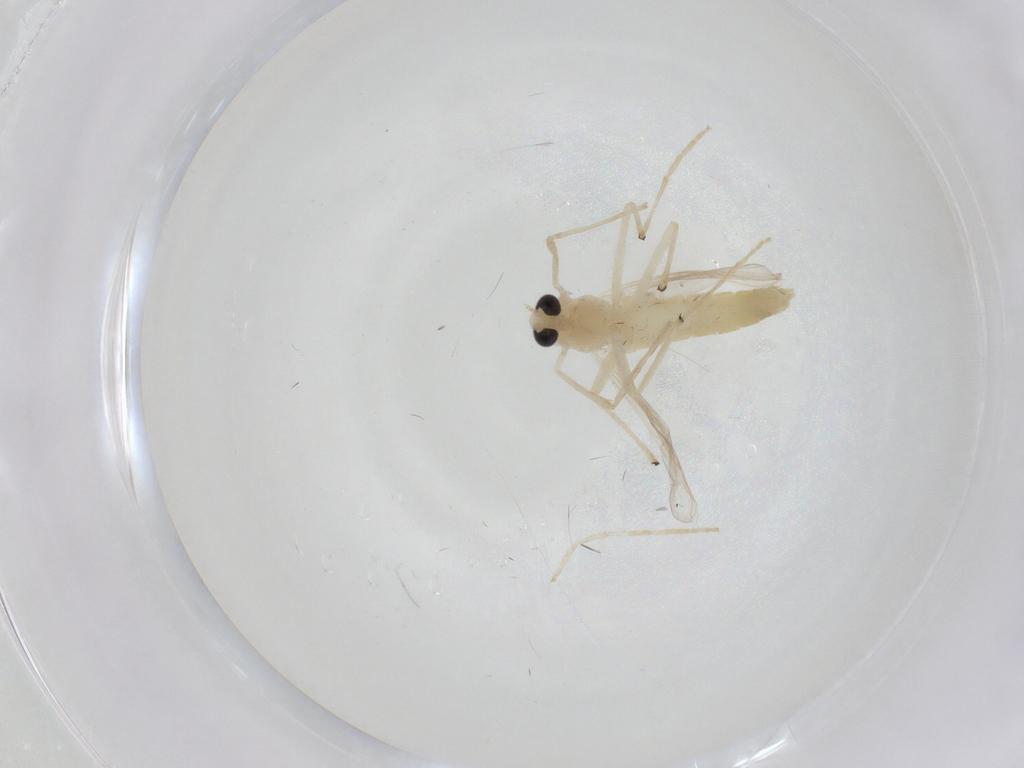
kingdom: Animalia
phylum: Arthropoda
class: Insecta
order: Diptera
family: Chironomidae
